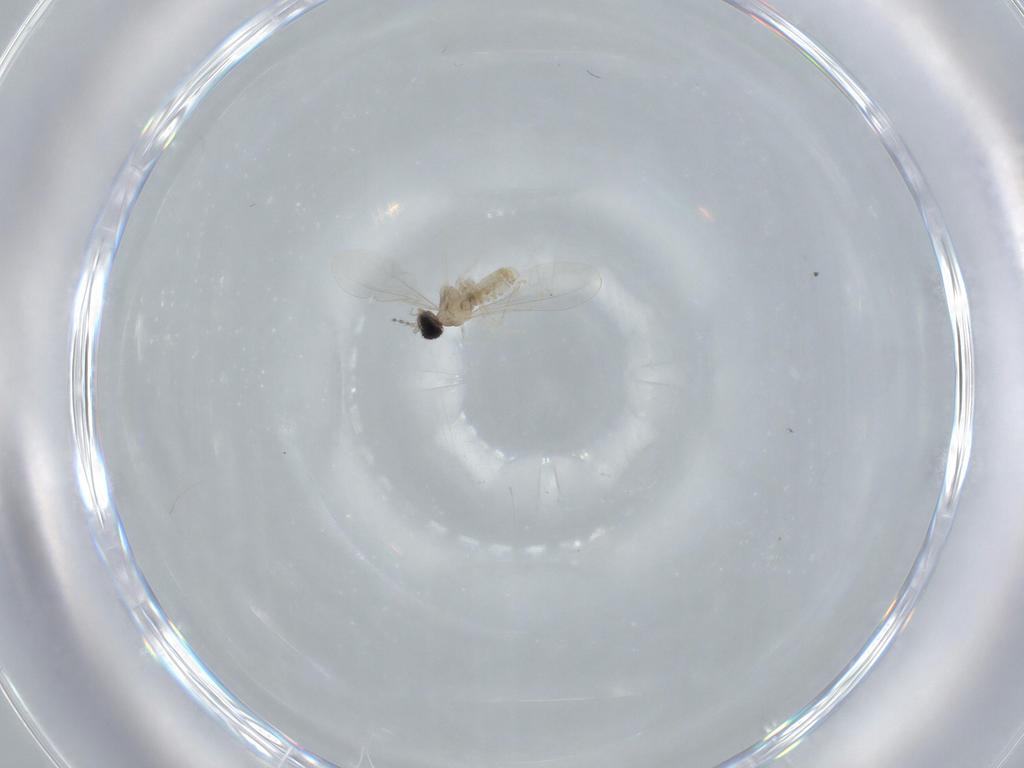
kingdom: Animalia
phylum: Arthropoda
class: Insecta
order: Diptera
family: Cecidomyiidae
